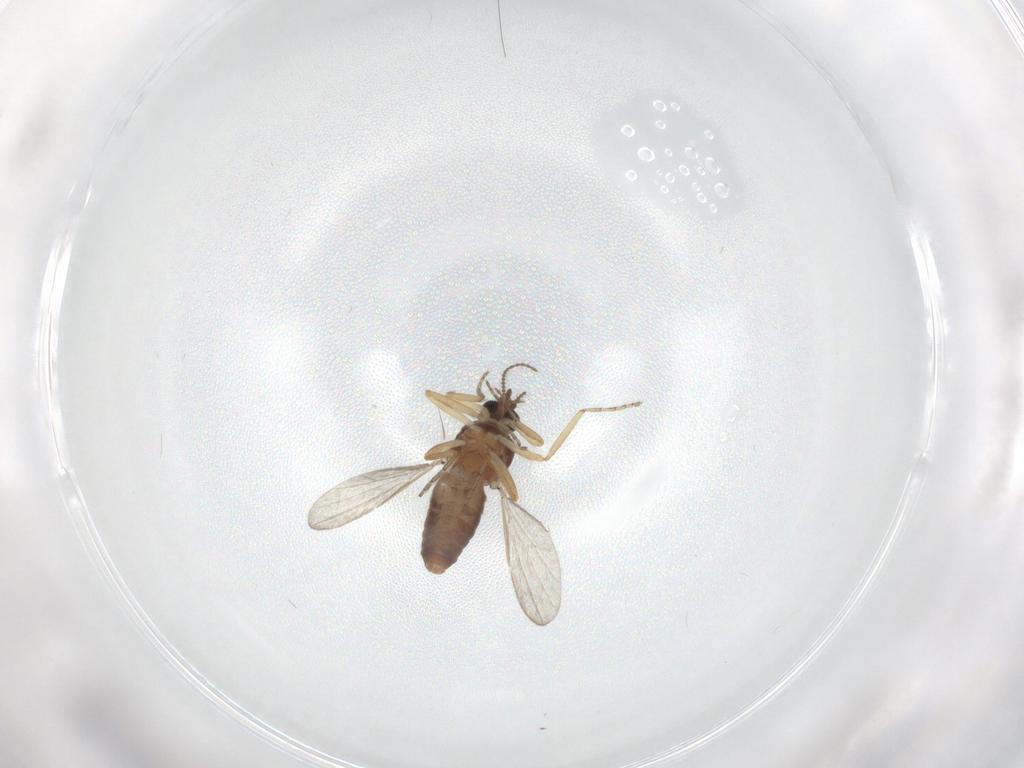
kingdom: Animalia
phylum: Arthropoda
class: Insecta
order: Diptera
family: Ceratopogonidae
